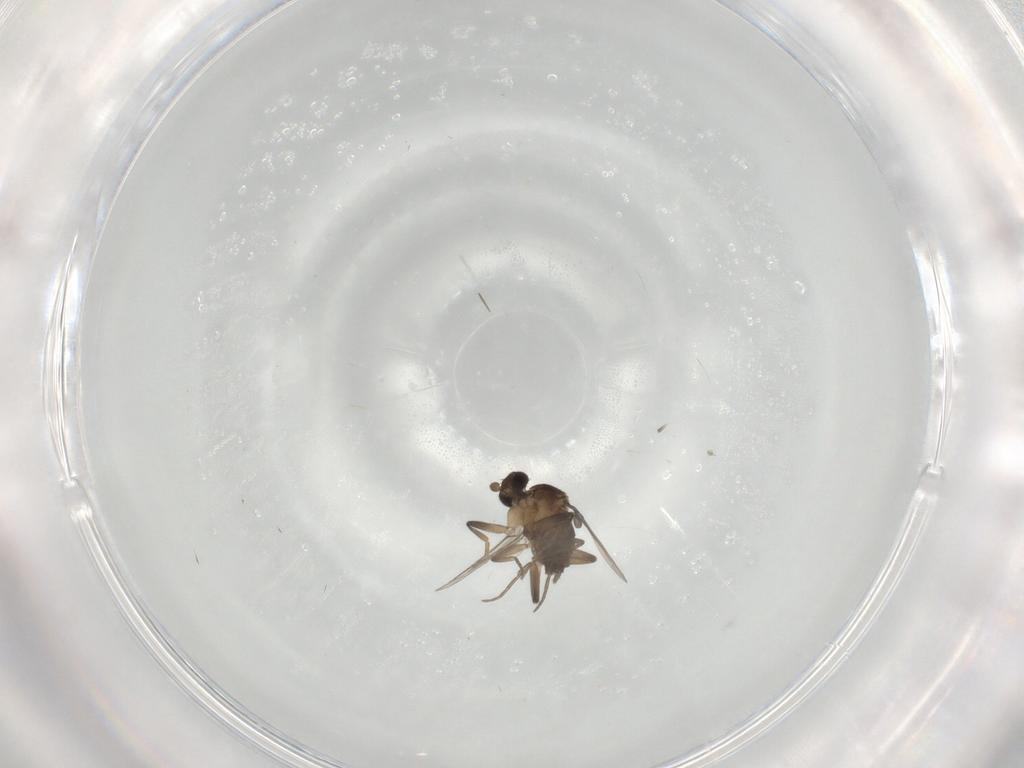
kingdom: Animalia
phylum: Arthropoda
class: Insecta
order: Diptera
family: Phoridae
